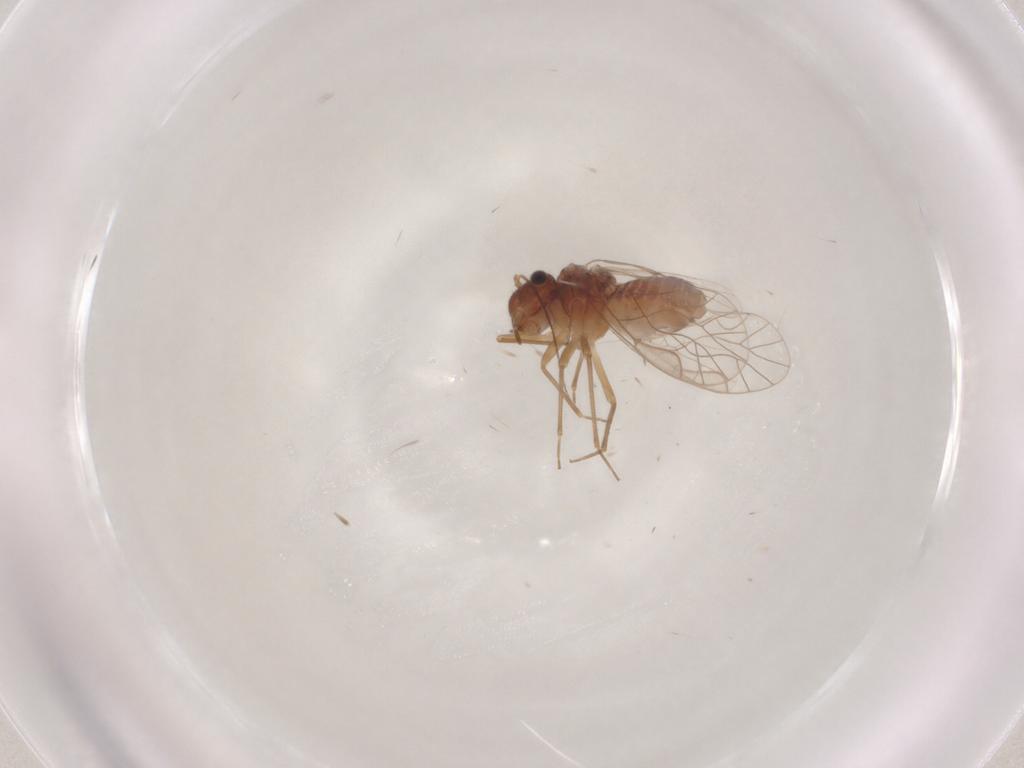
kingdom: Animalia
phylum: Arthropoda
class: Insecta
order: Psocodea
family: Lachesillidae
